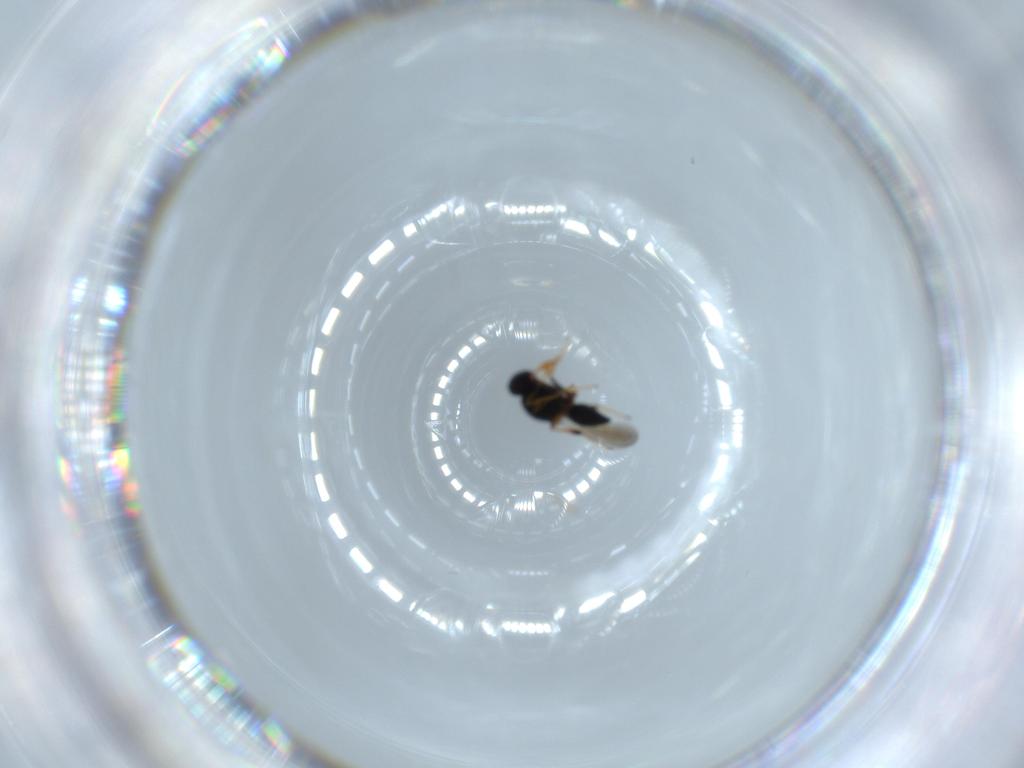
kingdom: Animalia
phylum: Arthropoda
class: Insecta
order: Hymenoptera
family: Platygastridae
